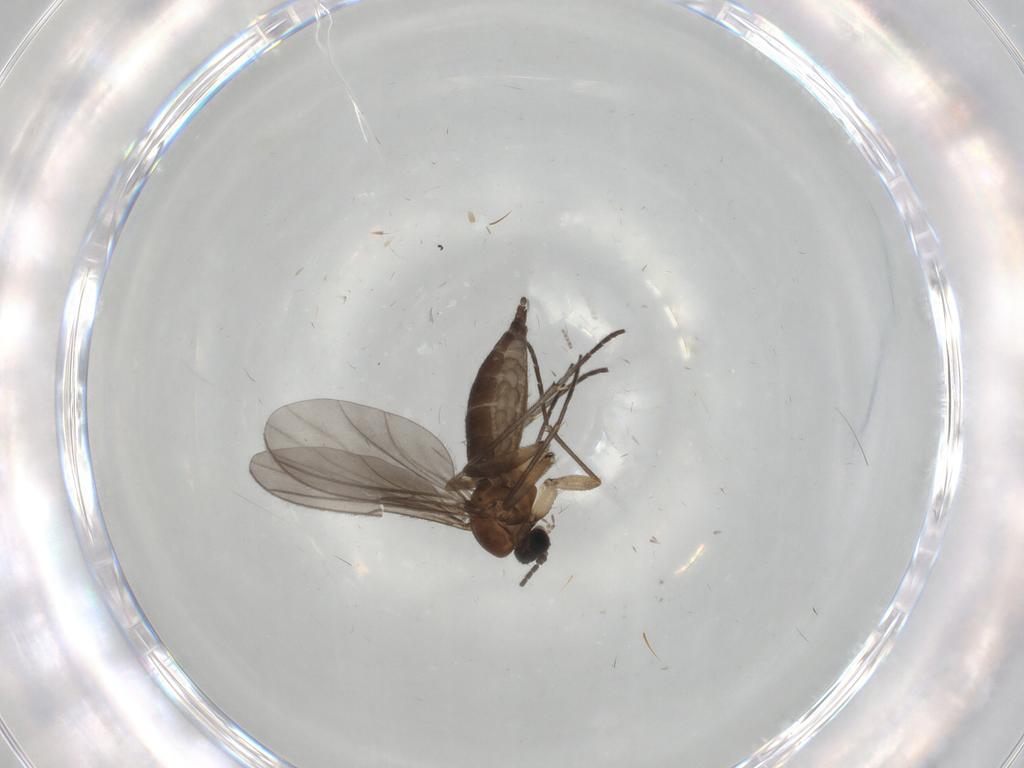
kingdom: Animalia
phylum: Arthropoda
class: Insecta
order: Diptera
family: Cecidomyiidae
